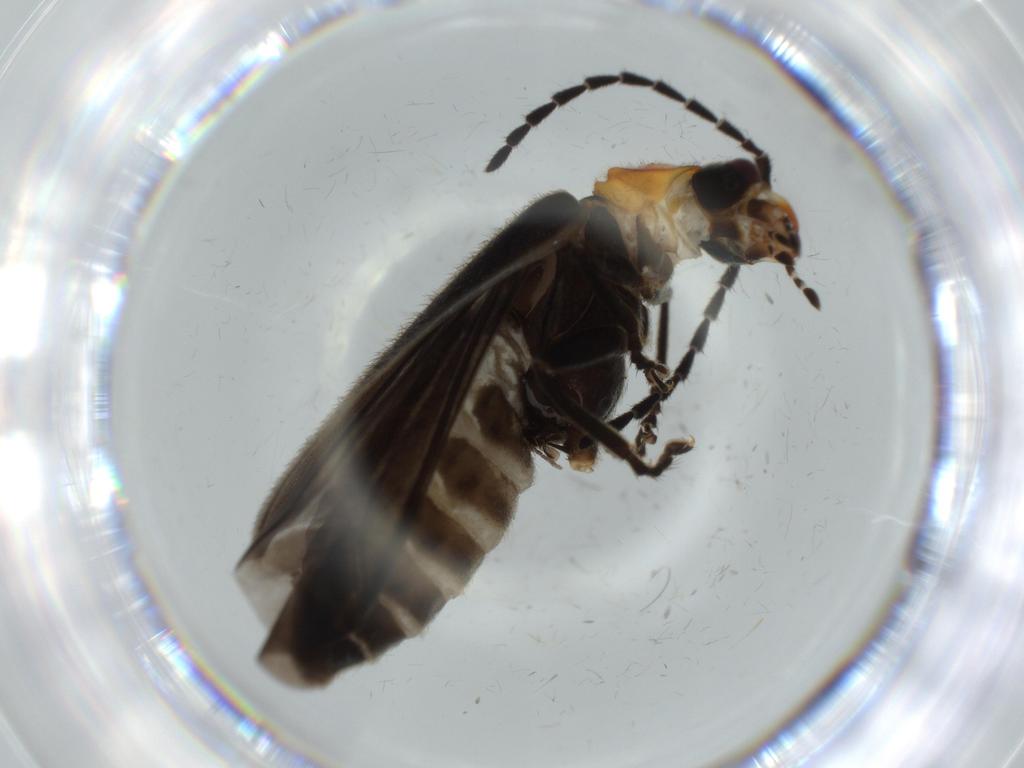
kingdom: Animalia
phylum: Arthropoda
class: Insecta
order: Coleoptera
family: Cantharidae
